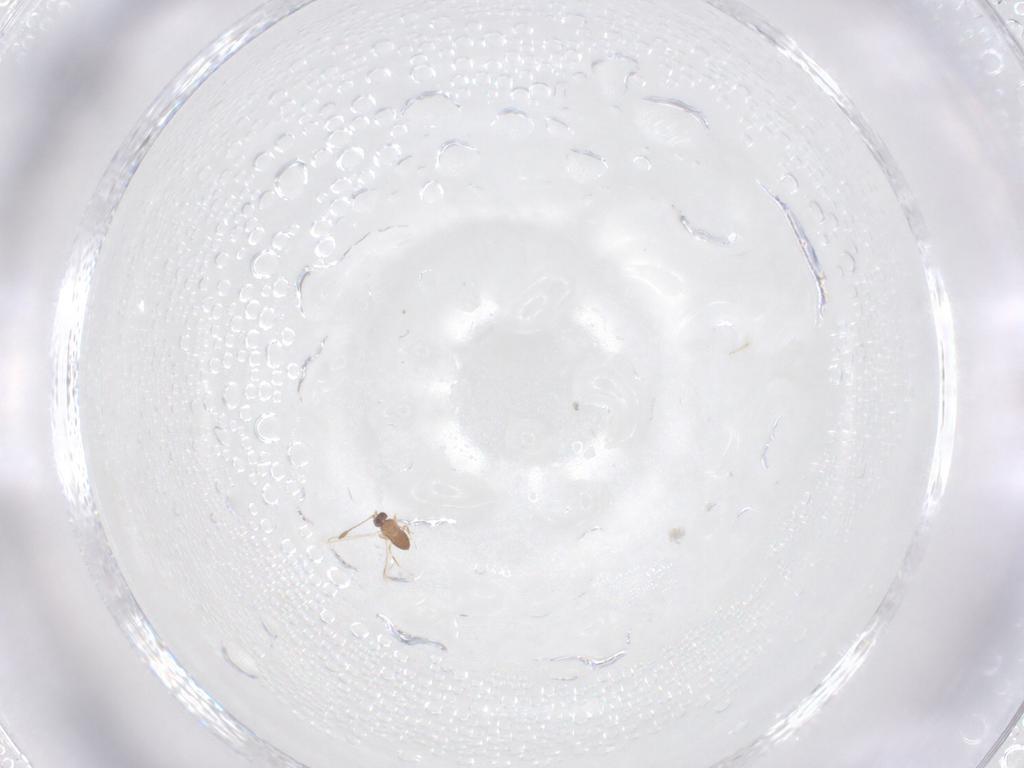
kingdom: Animalia
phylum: Arthropoda
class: Insecta
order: Hymenoptera
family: Mymaridae
